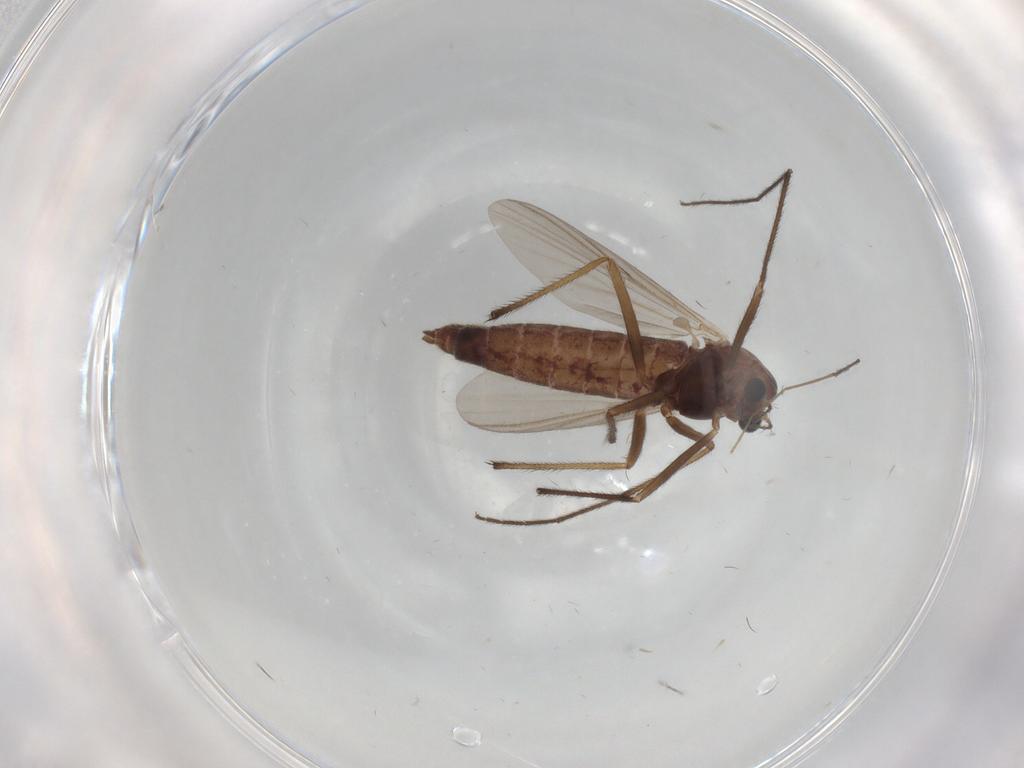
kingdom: Animalia
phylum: Arthropoda
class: Insecta
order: Diptera
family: Chironomidae
